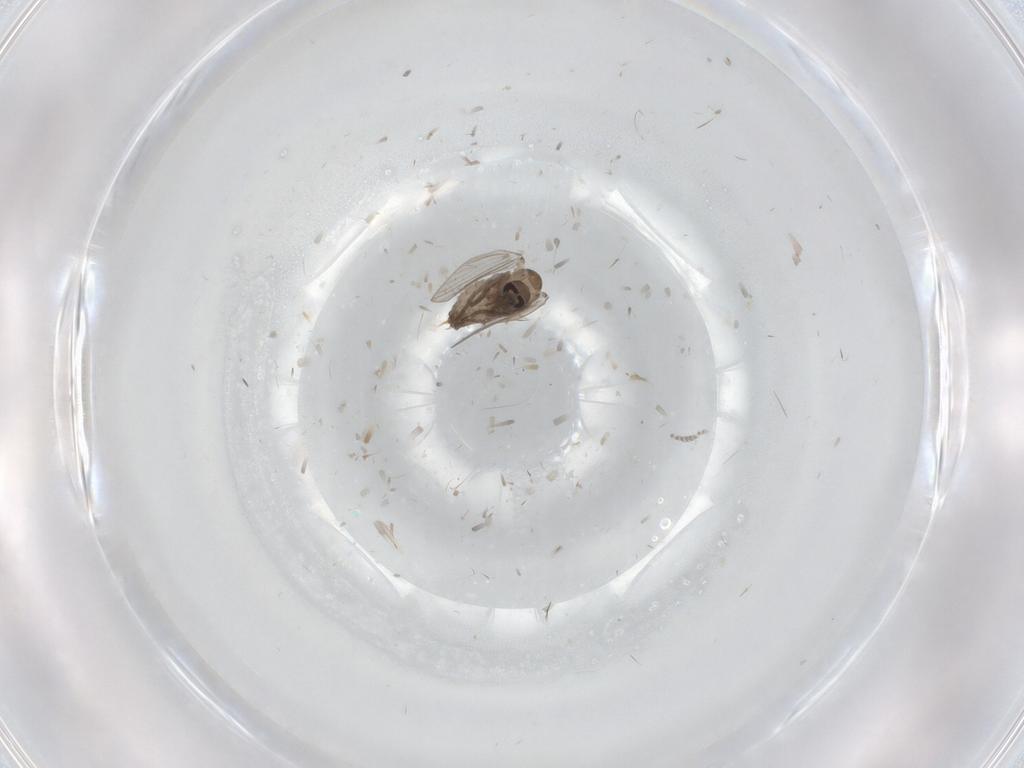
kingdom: Animalia
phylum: Arthropoda
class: Insecta
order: Diptera
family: Psychodidae
